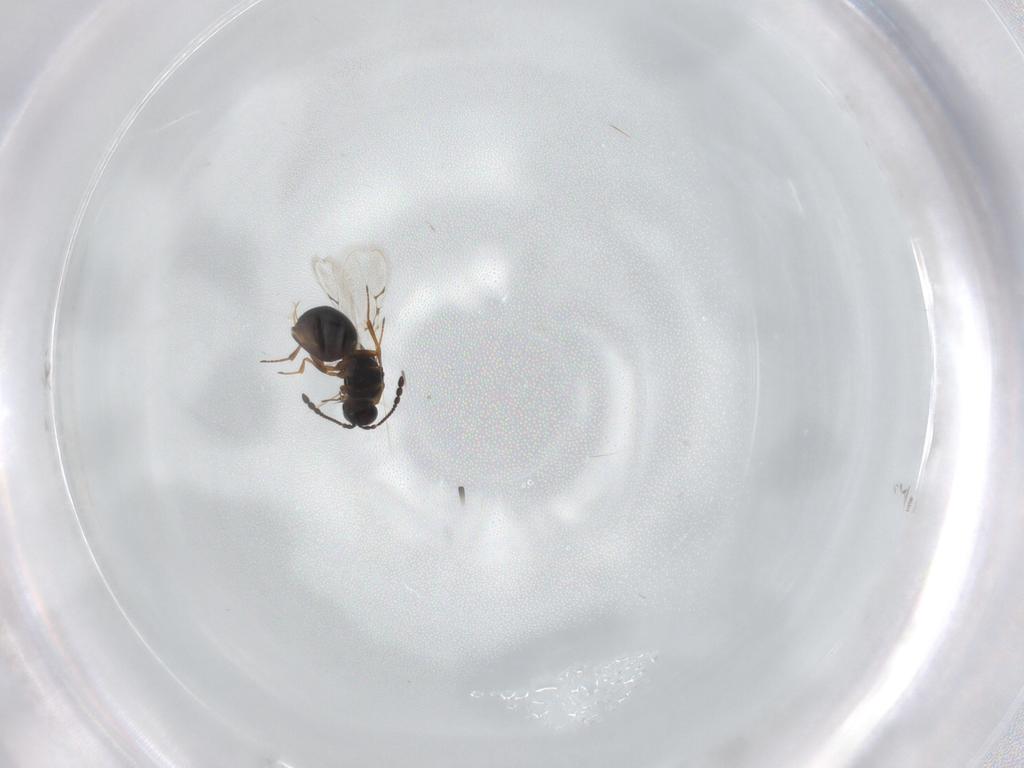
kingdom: Animalia
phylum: Arthropoda
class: Insecta
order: Hymenoptera
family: Figitidae
